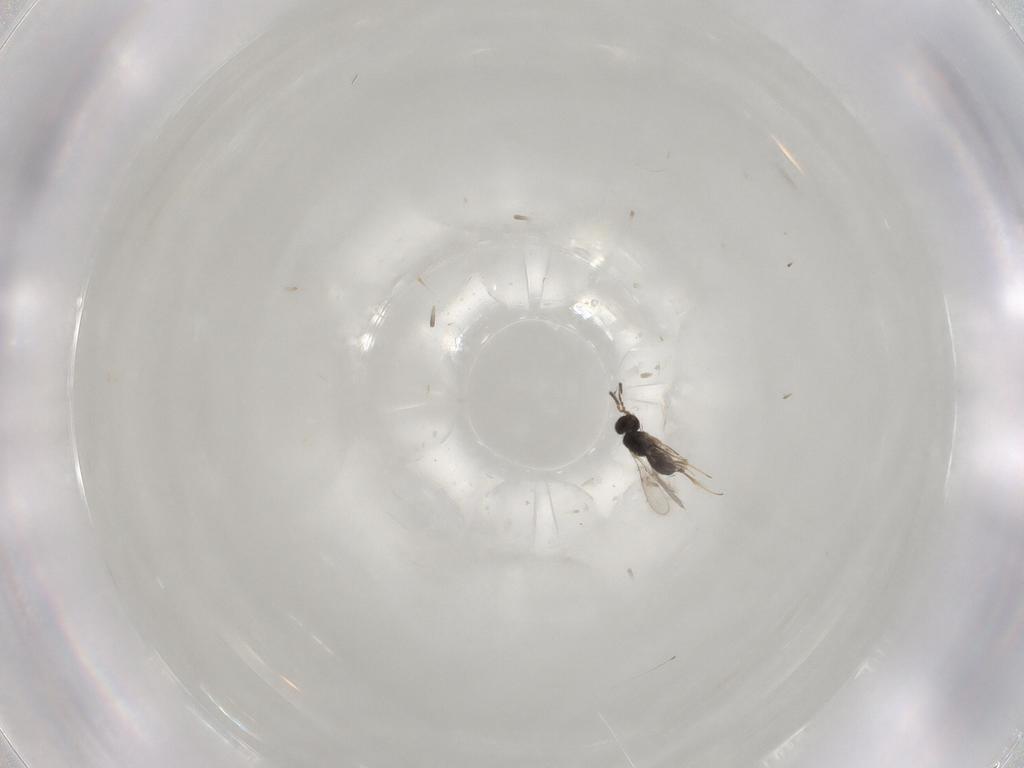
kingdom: Animalia
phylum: Arthropoda
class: Insecta
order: Hymenoptera
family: Scelionidae
